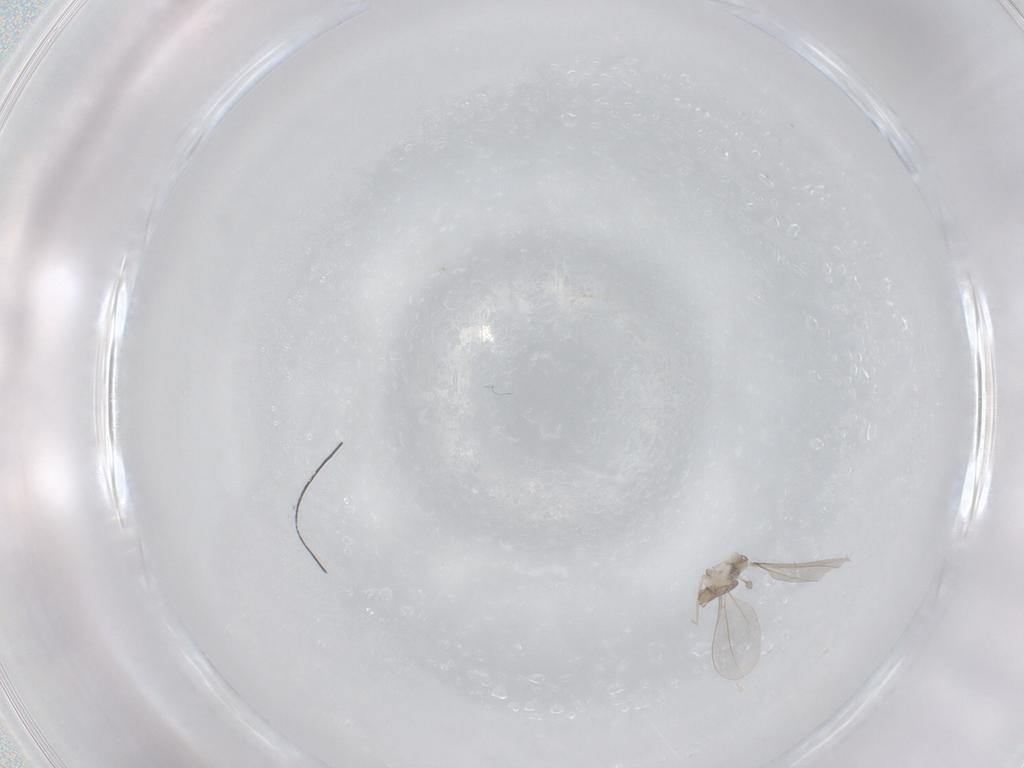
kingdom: Animalia
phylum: Arthropoda
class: Insecta
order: Diptera
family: Cecidomyiidae
